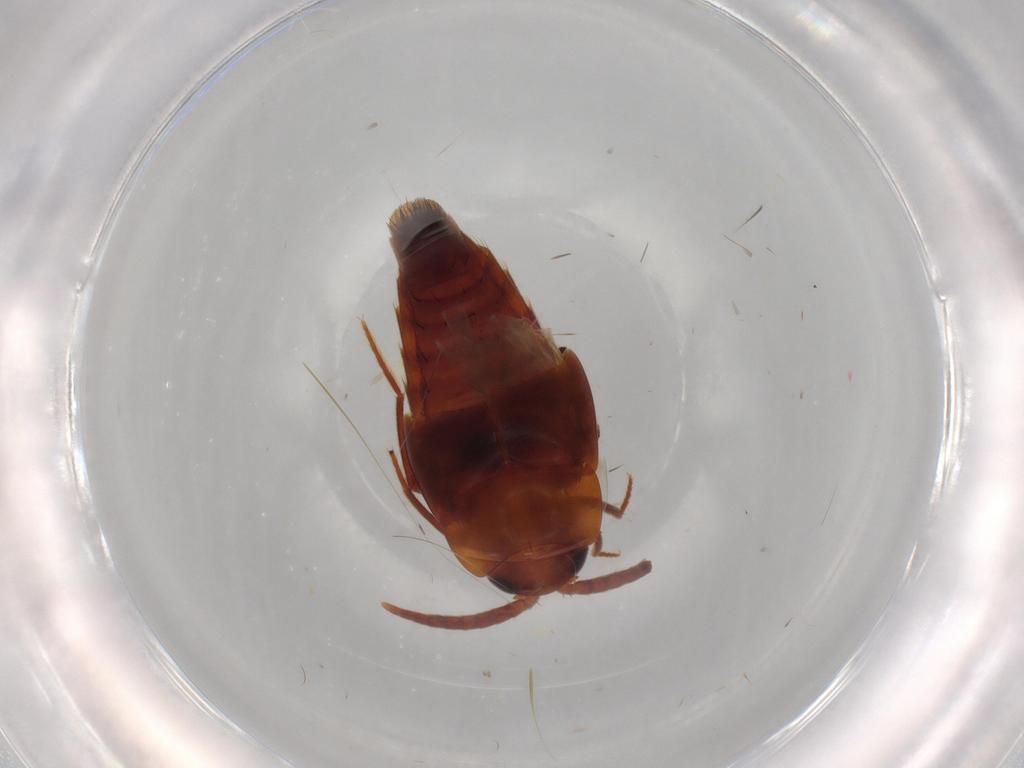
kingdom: Animalia
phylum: Arthropoda
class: Insecta
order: Coleoptera
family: Staphylinidae
